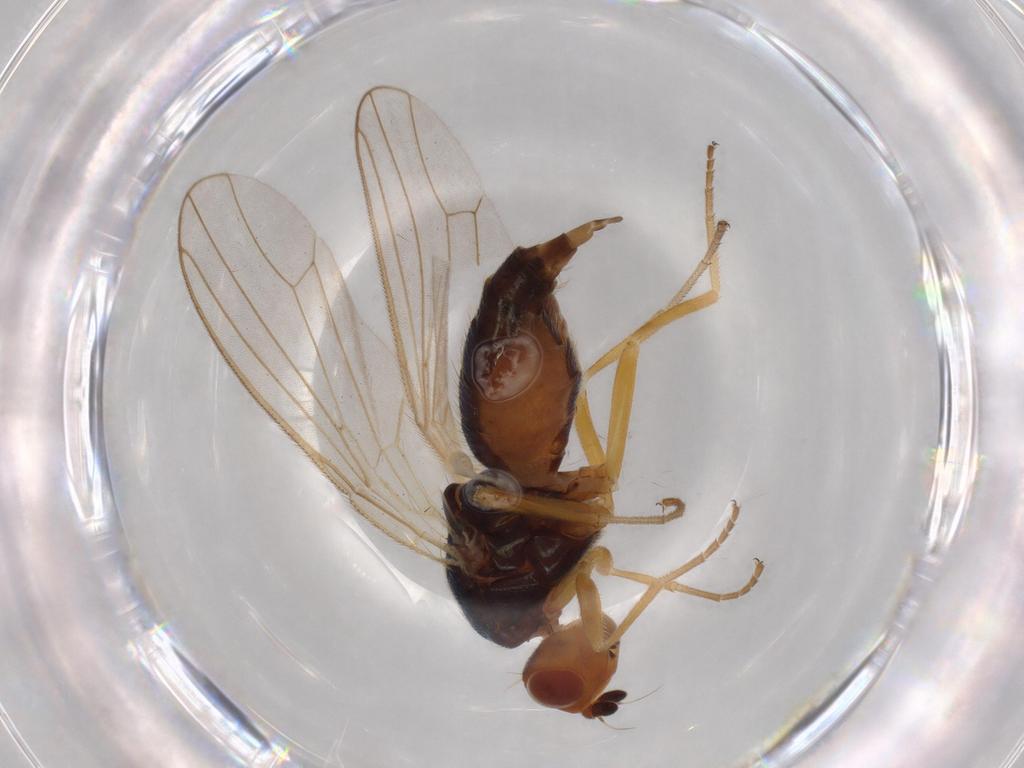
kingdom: Animalia
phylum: Arthropoda
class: Insecta
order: Diptera
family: Psilidae
